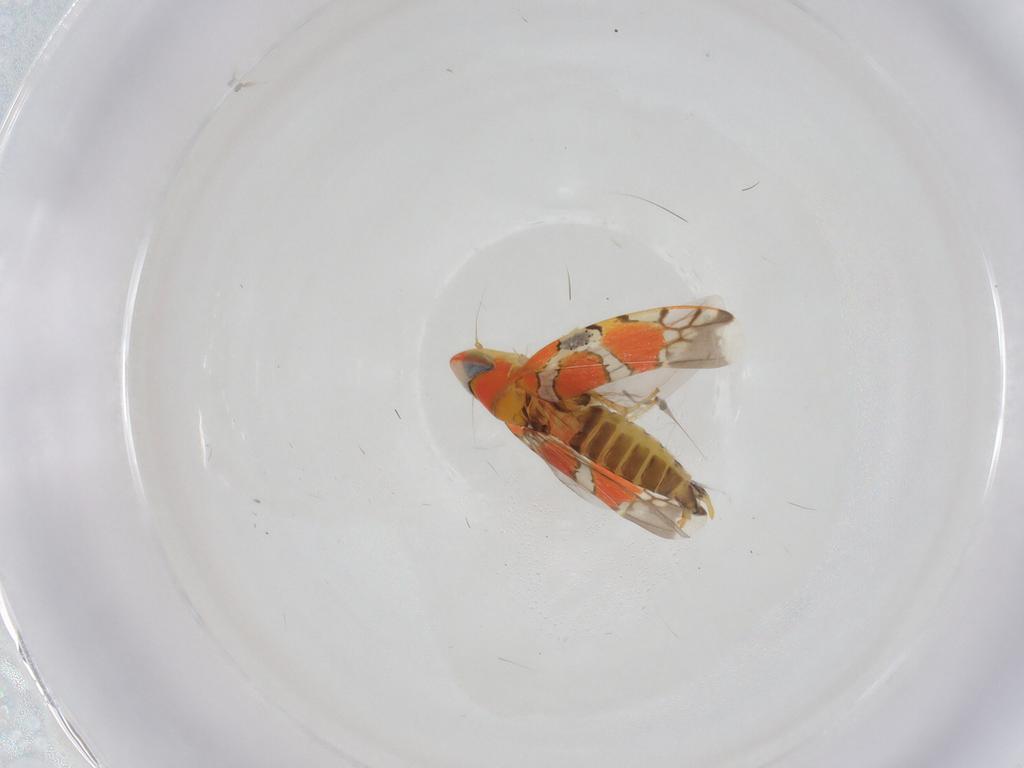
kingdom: Animalia
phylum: Arthropoda
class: Insecta
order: Hemiptera
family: Cicadellidae
